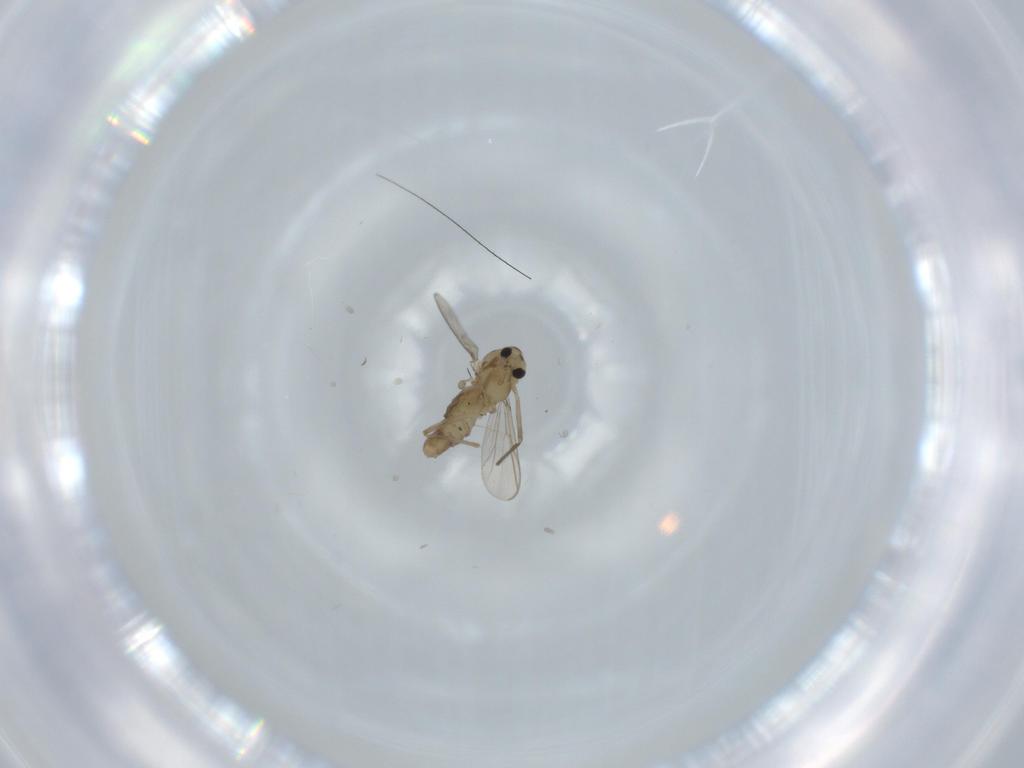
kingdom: Animalia
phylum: Arthropoda
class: Insecta
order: Diptera
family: Chironomidae
